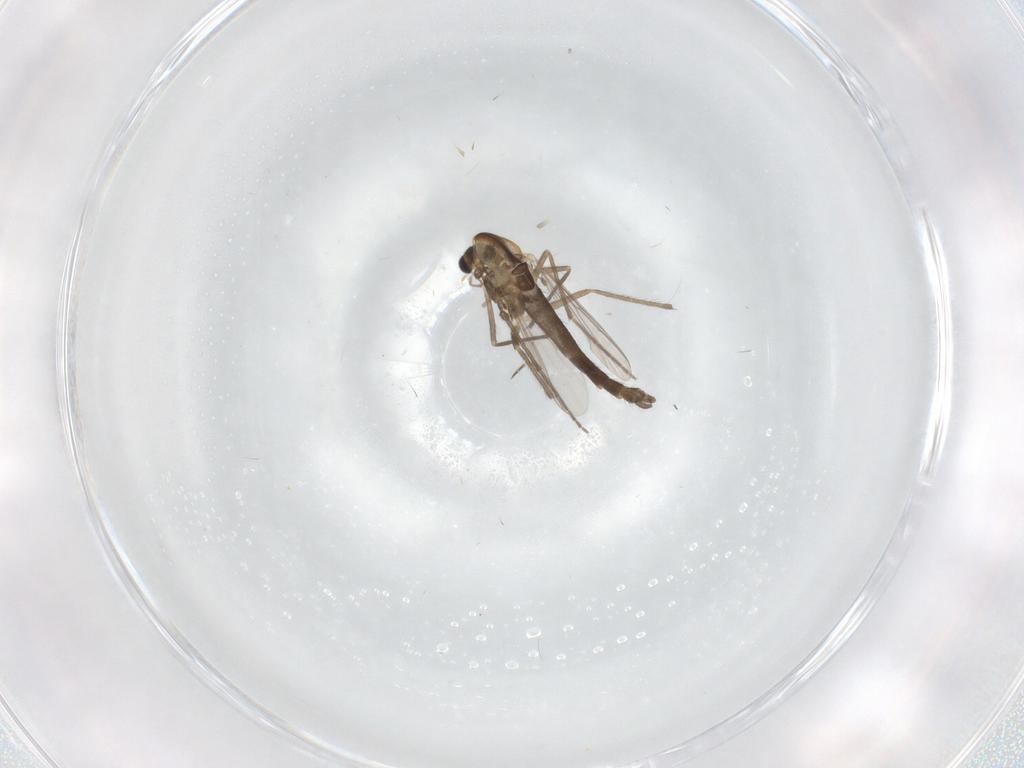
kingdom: Animalia
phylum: Arthropoda
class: Insecta
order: Diptera
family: Chironomidae
